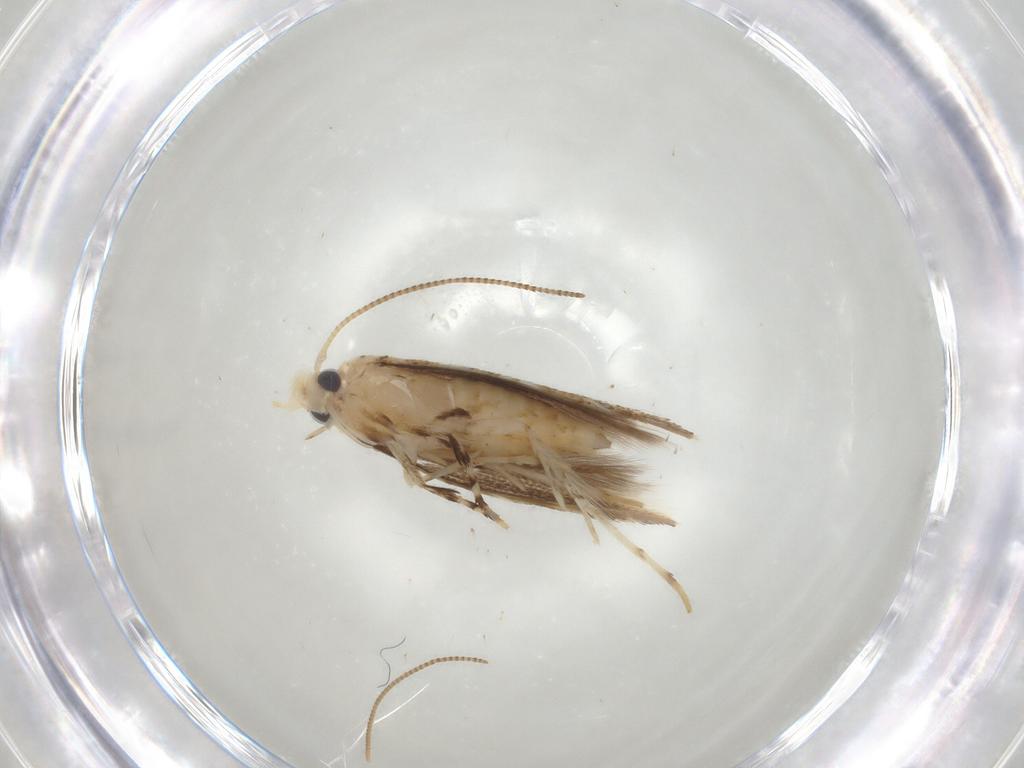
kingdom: Animalia
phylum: Arthropoda
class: Insecta
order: Lepidoptera
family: Gracillariidae
